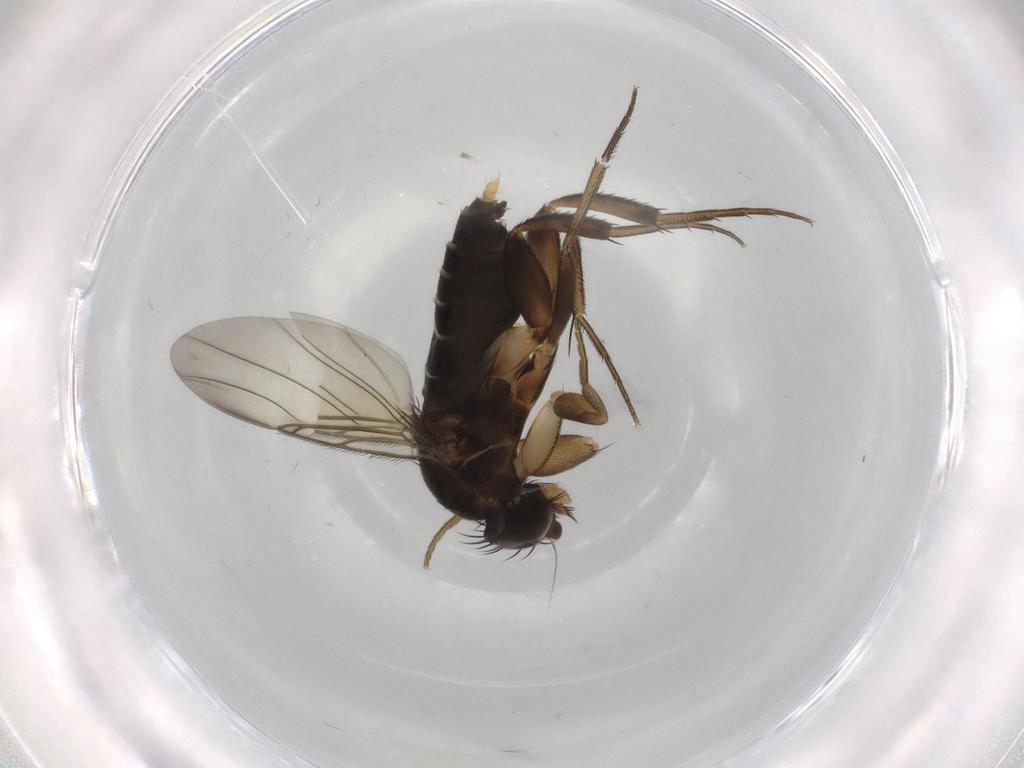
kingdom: Animalia
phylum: Arthropoda
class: Insecta
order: Diptera
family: Phoridae
